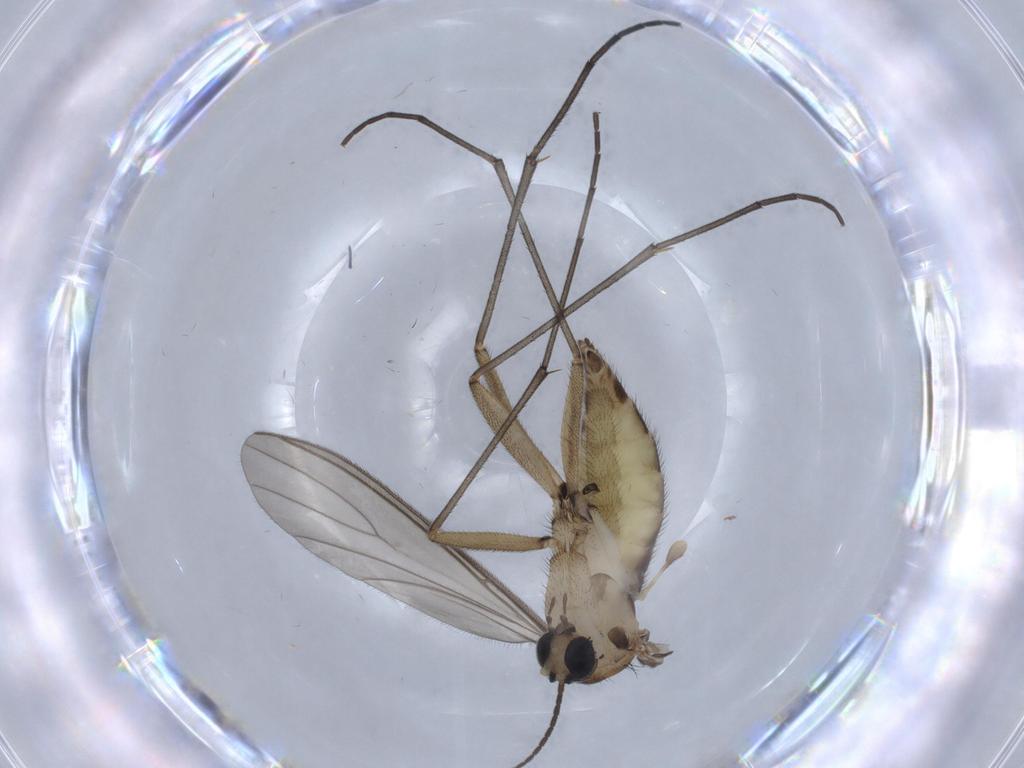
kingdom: Animalia
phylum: Arthropoda
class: Insecta
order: Diptera
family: Sciaridae
